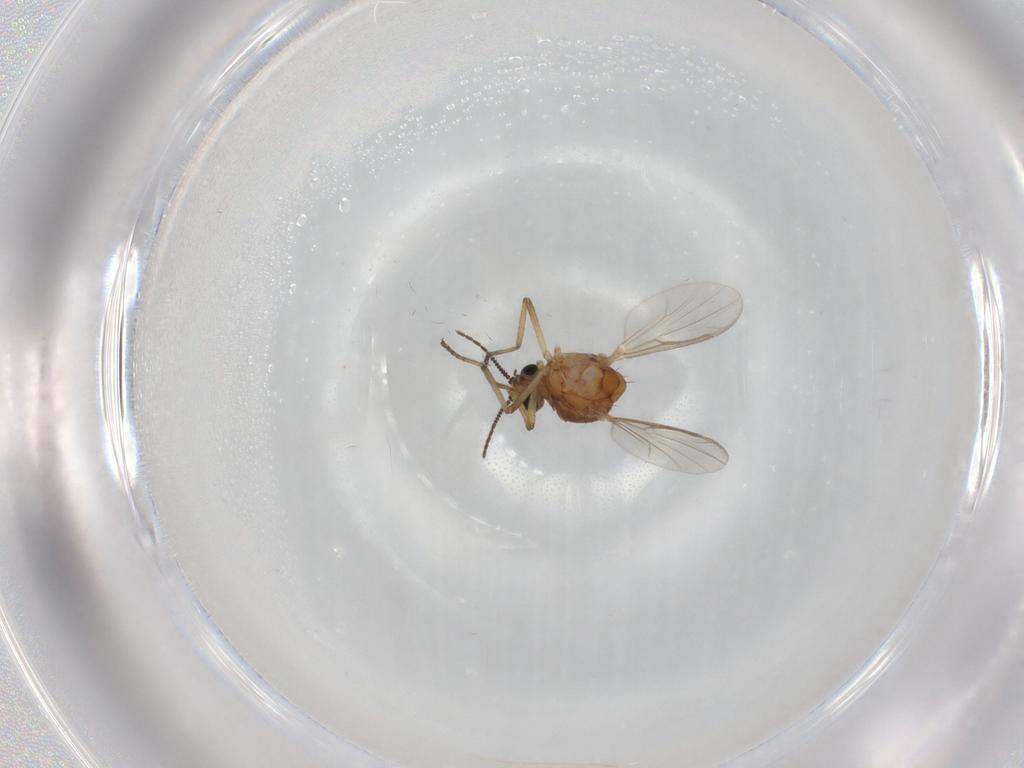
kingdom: Animalia
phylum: Arthropoda
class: Insecta
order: Diptera
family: Ceratopogonidae
